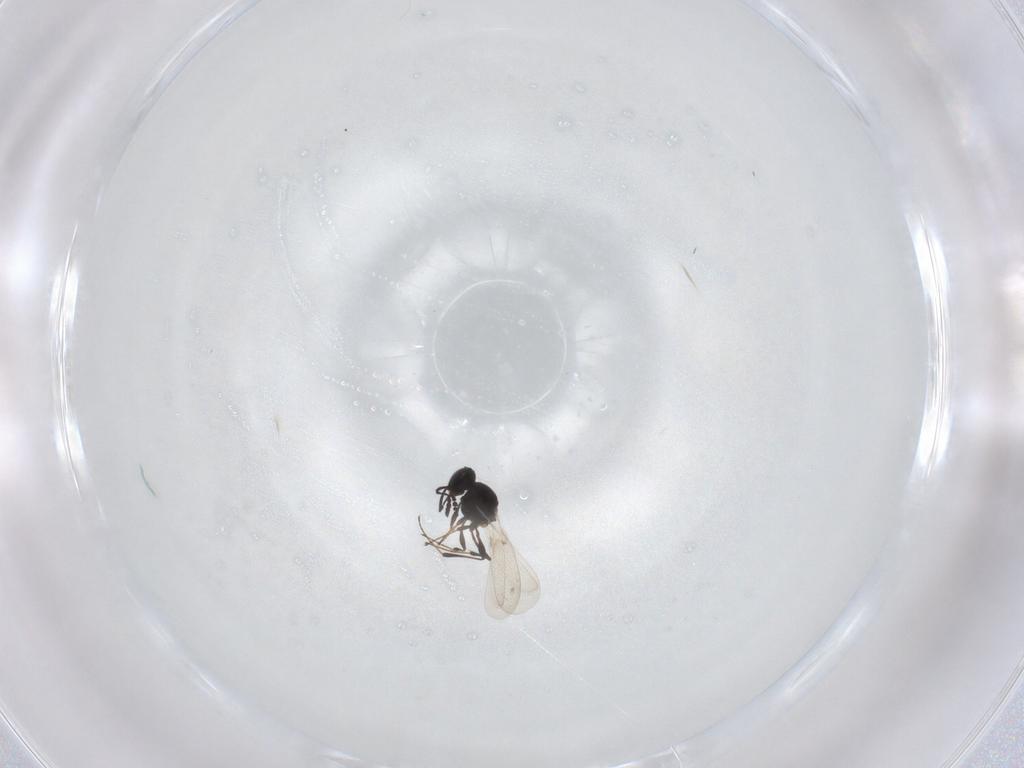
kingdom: Animalia
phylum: Arthropoda
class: Insecta
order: Hymenoptera
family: Platygastridae
